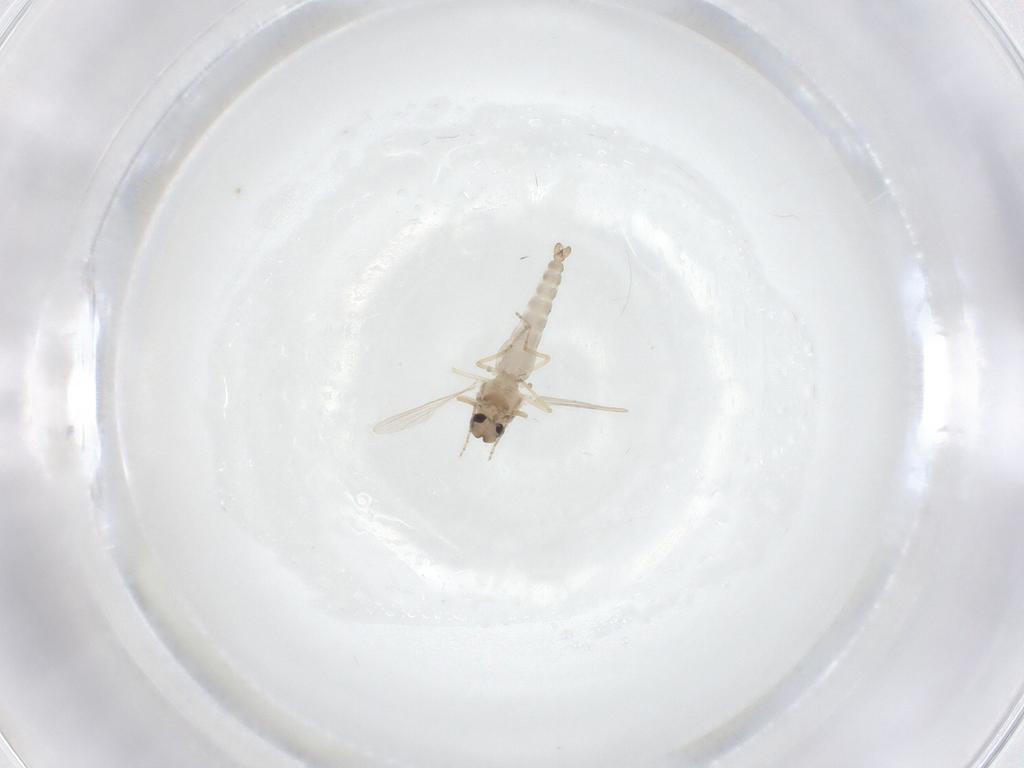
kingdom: Animalia
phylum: Arthropoda
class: Insecta
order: Diptera
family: Ceratopogonidae
